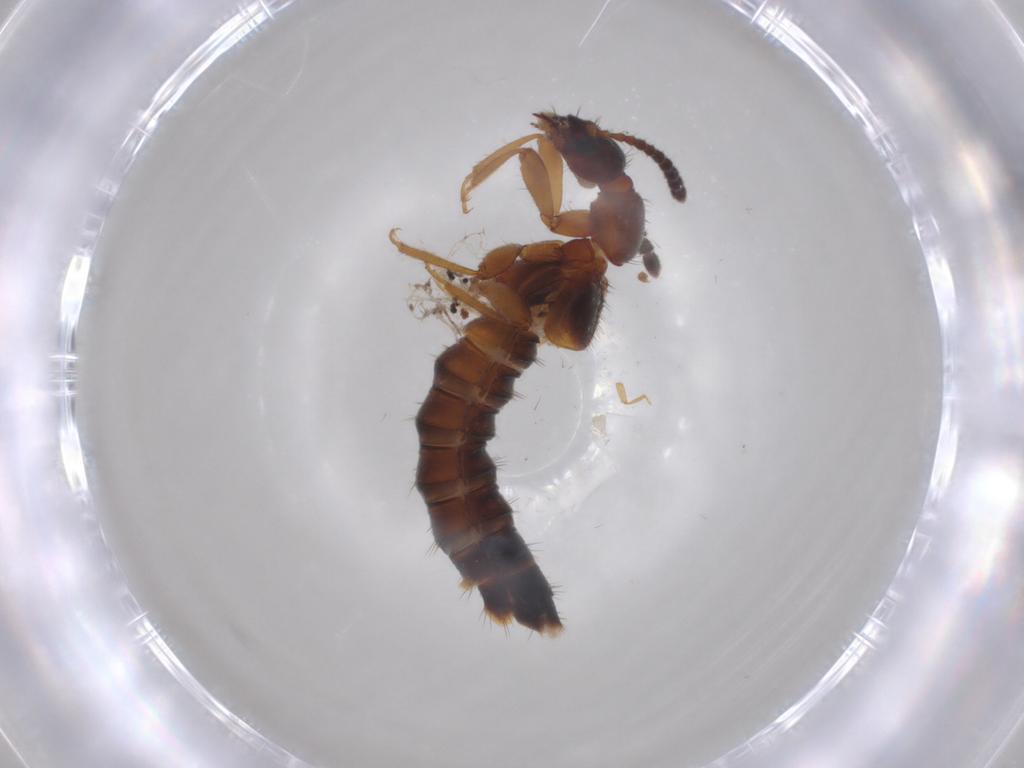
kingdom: Animalia
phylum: Arthropoda
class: Insecta
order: Coleoptera
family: Staphylinidae
